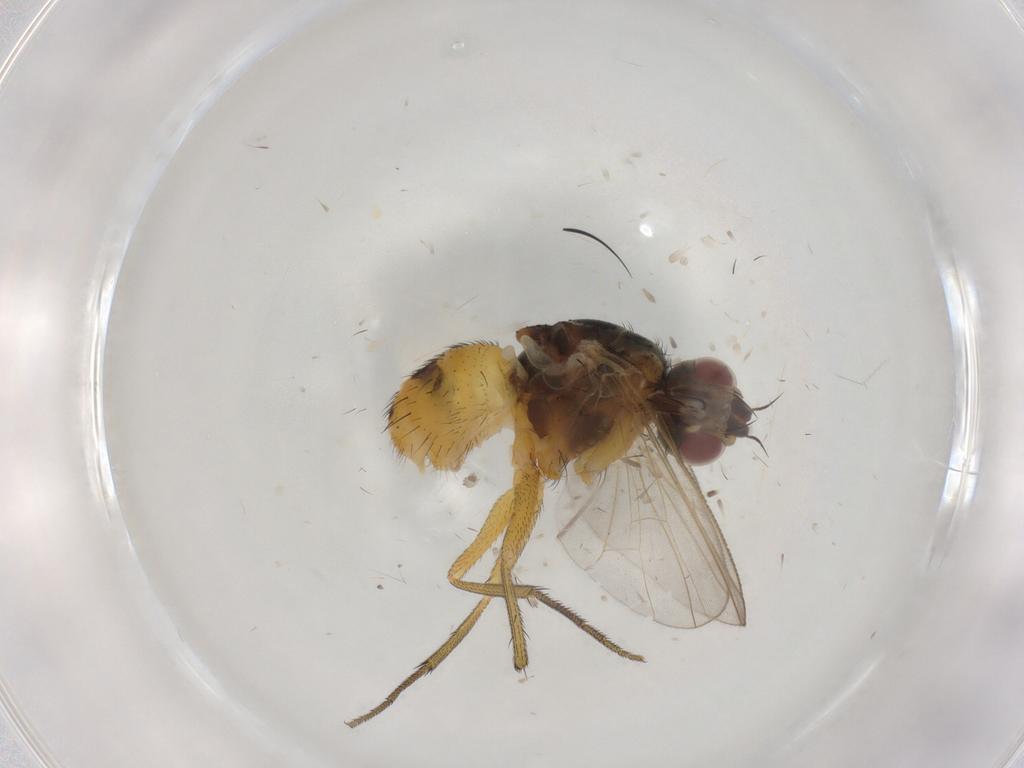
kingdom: Animalia
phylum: Arthropoda
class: Insecta
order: Diptera
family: Muscidae
